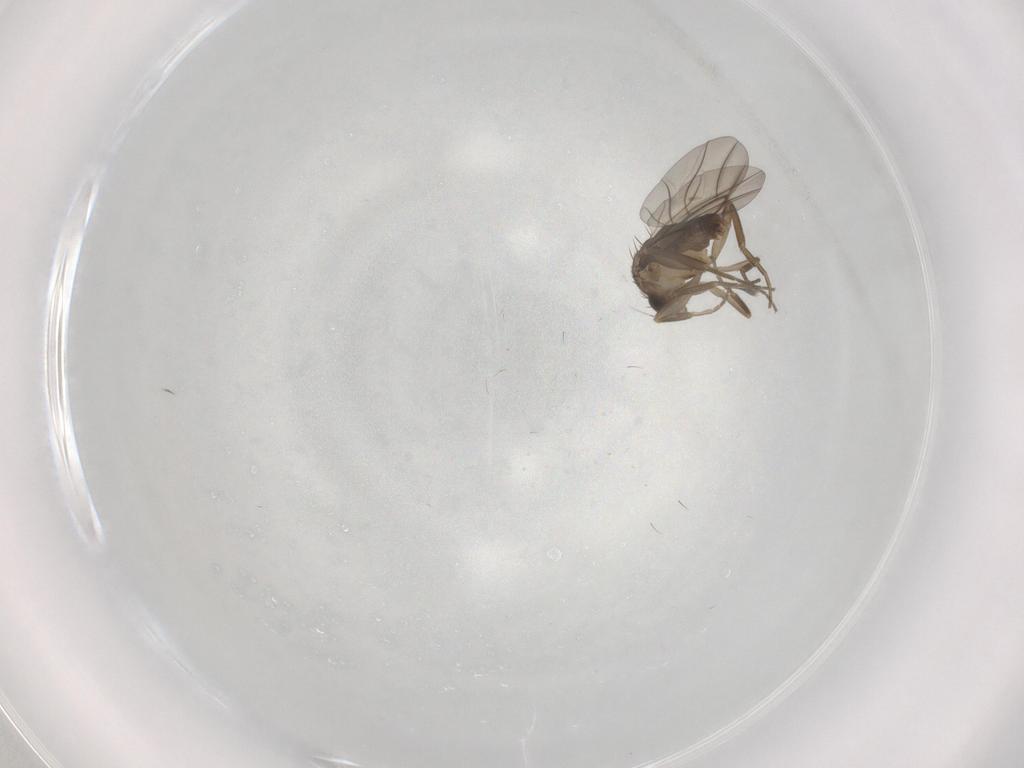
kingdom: Animalia
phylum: Arthropoda
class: Insecta
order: Diptera
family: Phoridae
